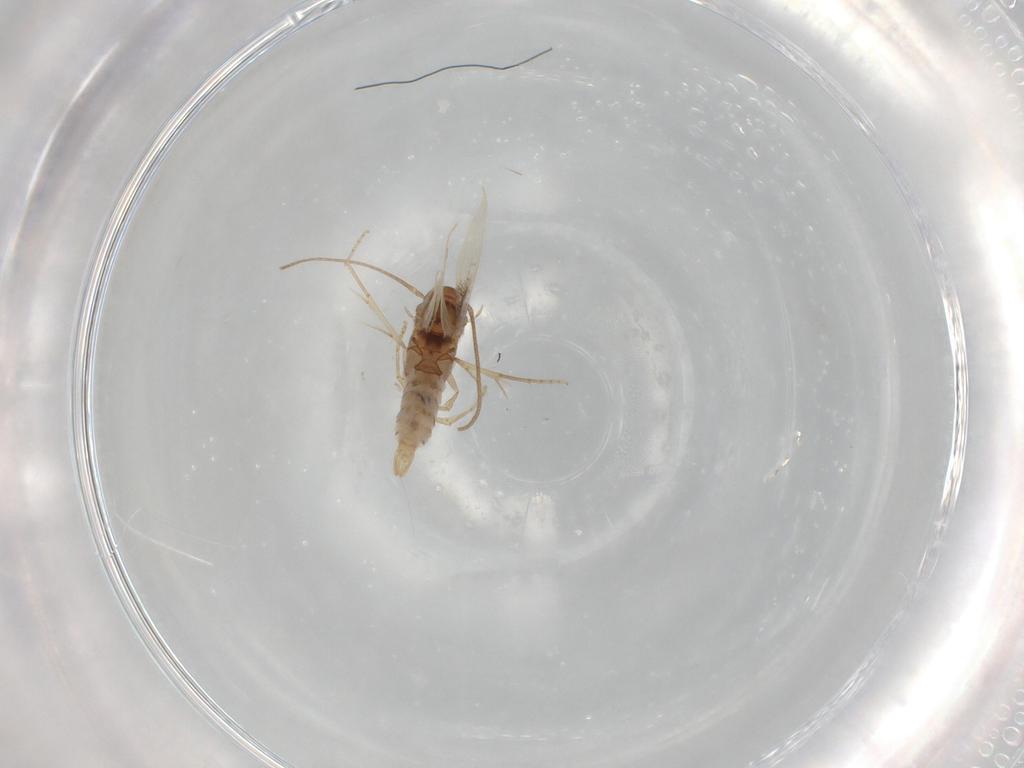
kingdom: Animalia
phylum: Arthropoda
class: Insecta
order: Lepidoptera
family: Elachistidae
